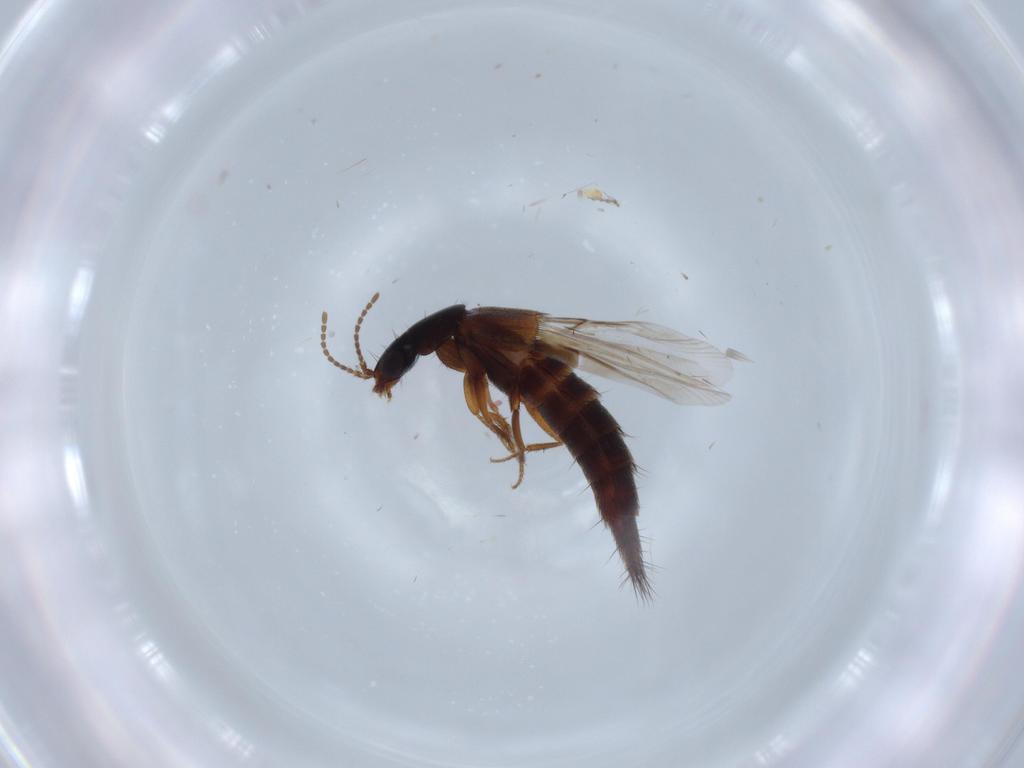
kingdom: Animalia
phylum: Arthropoda
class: Insecta
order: Coleoptera
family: Staphylinidae
